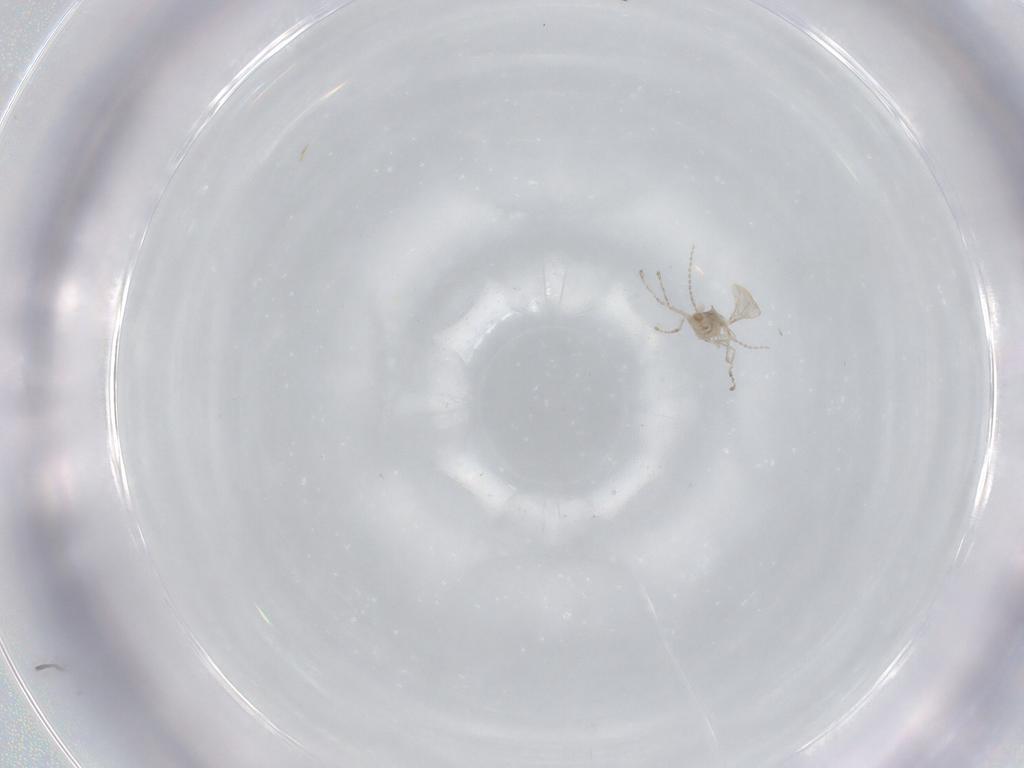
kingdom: Animalia
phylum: Arthropoda
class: Insecta
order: Diptera
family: Cecidomyiidae
